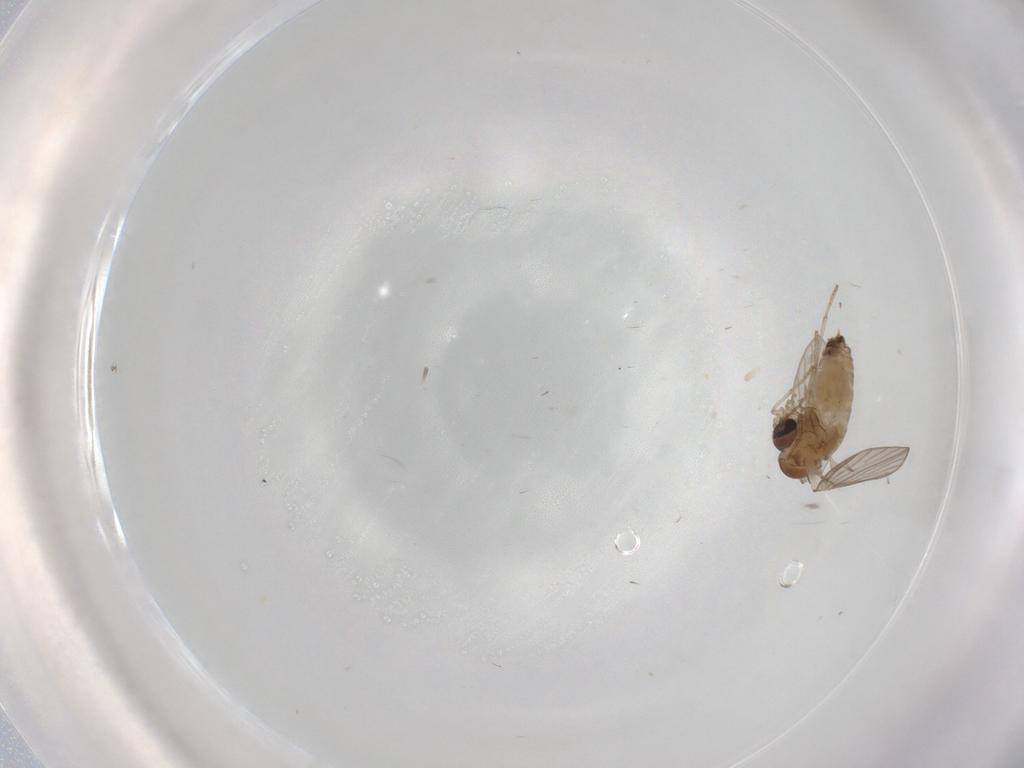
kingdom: Animalia
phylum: Arthropoda
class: Insecta
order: Diptera
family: Psychodidae
